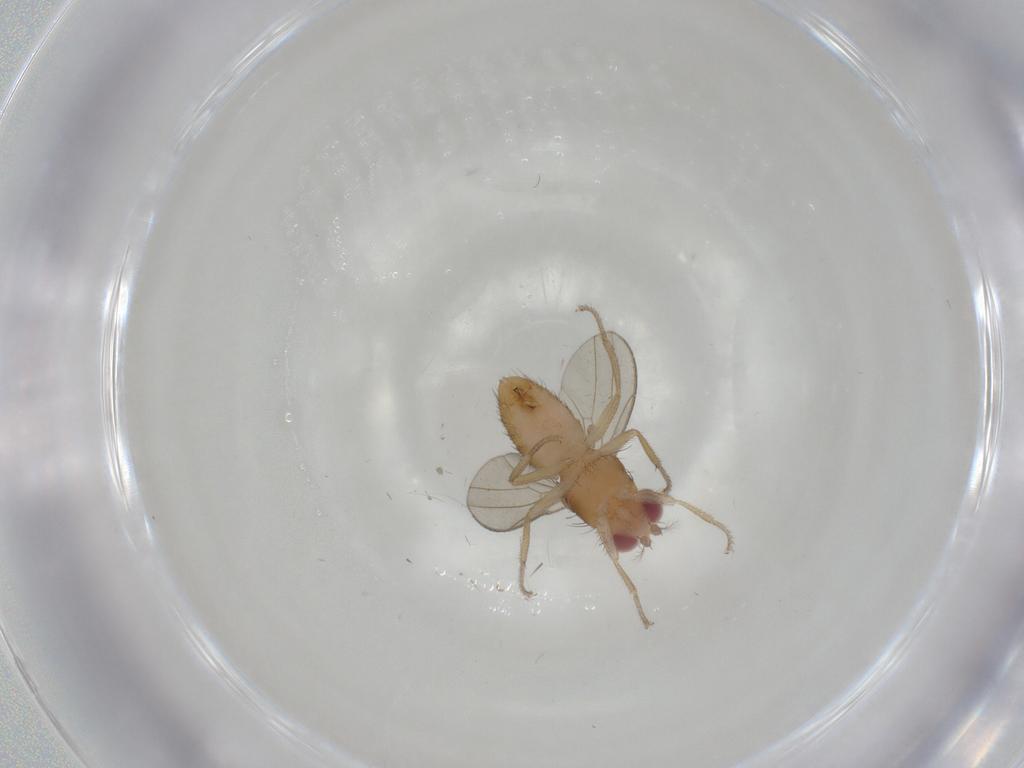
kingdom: Animalia
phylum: Arthropoda
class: Insecta
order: Diptera
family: Drosophilidae
